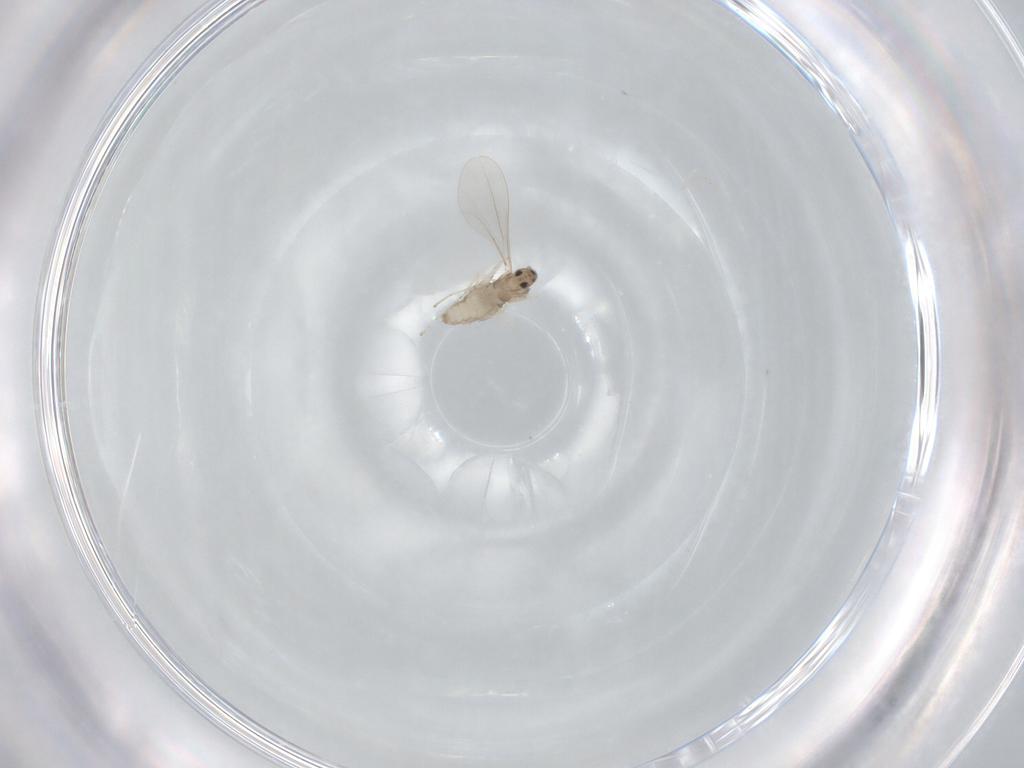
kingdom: Animalia
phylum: Arthropoda
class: Insecta
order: Diptera
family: Cecidomyiidae
